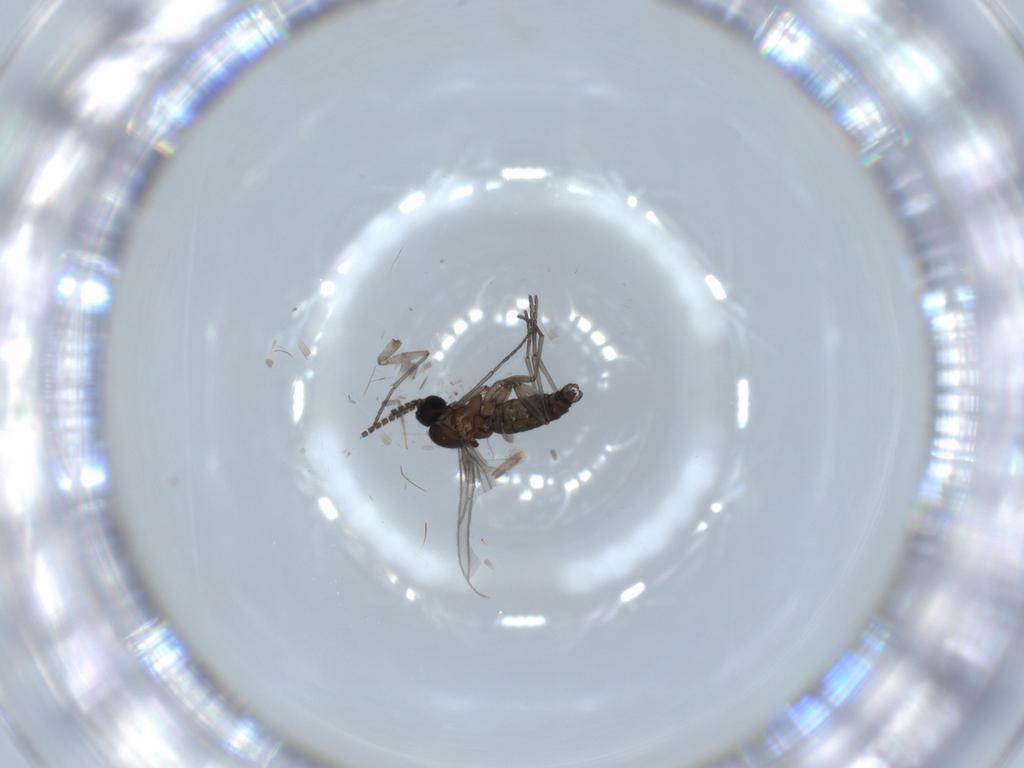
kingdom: Animalia
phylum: Arthropoda
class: Insecta
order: Diptera
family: Chironomidae
